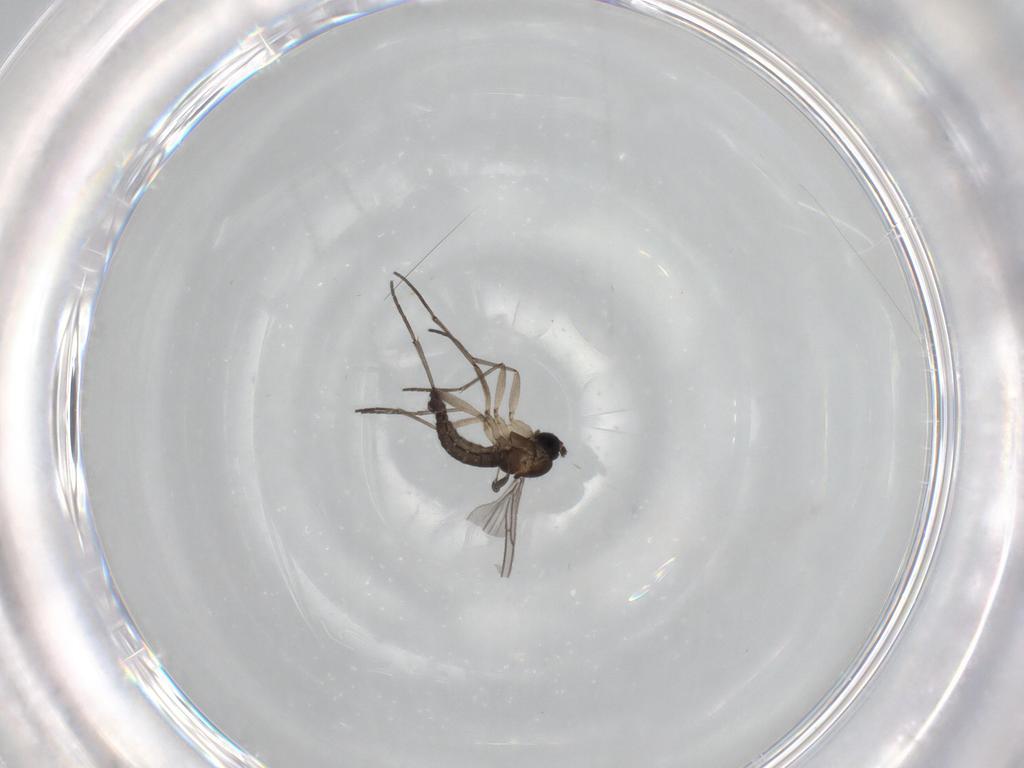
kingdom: Animalia
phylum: Arthropoda
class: Insecta
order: Diptera
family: Sciaridae
